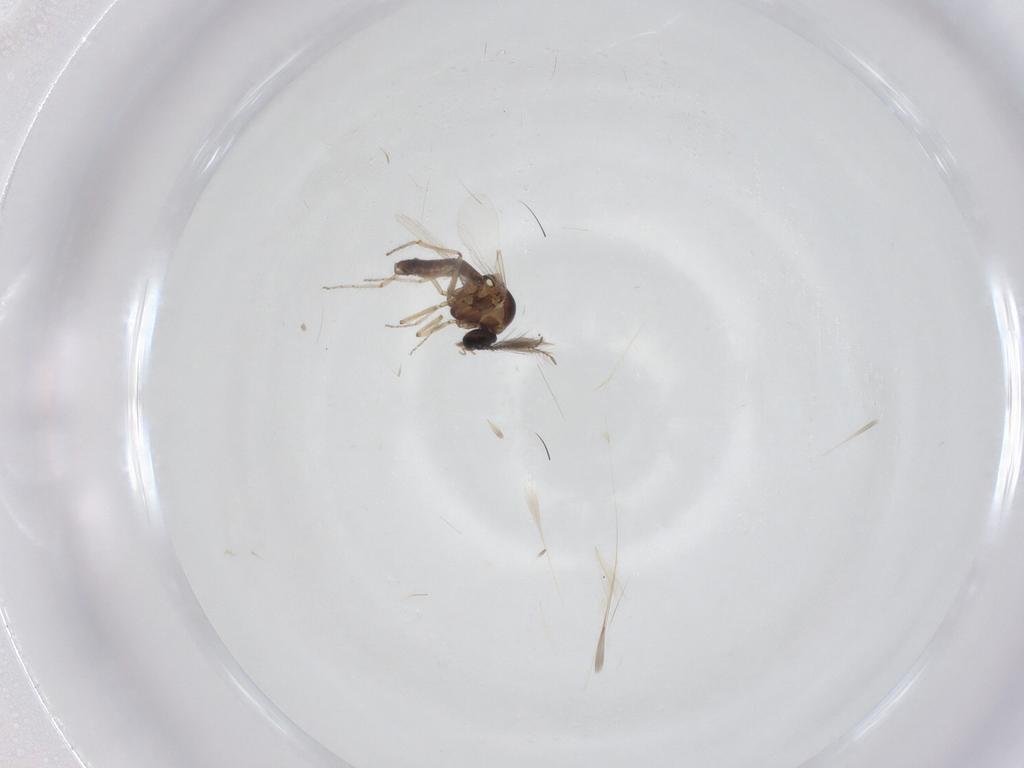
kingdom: Animalia
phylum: Arthropoda
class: Insecta
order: Diptera
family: Ceratopogonidae
